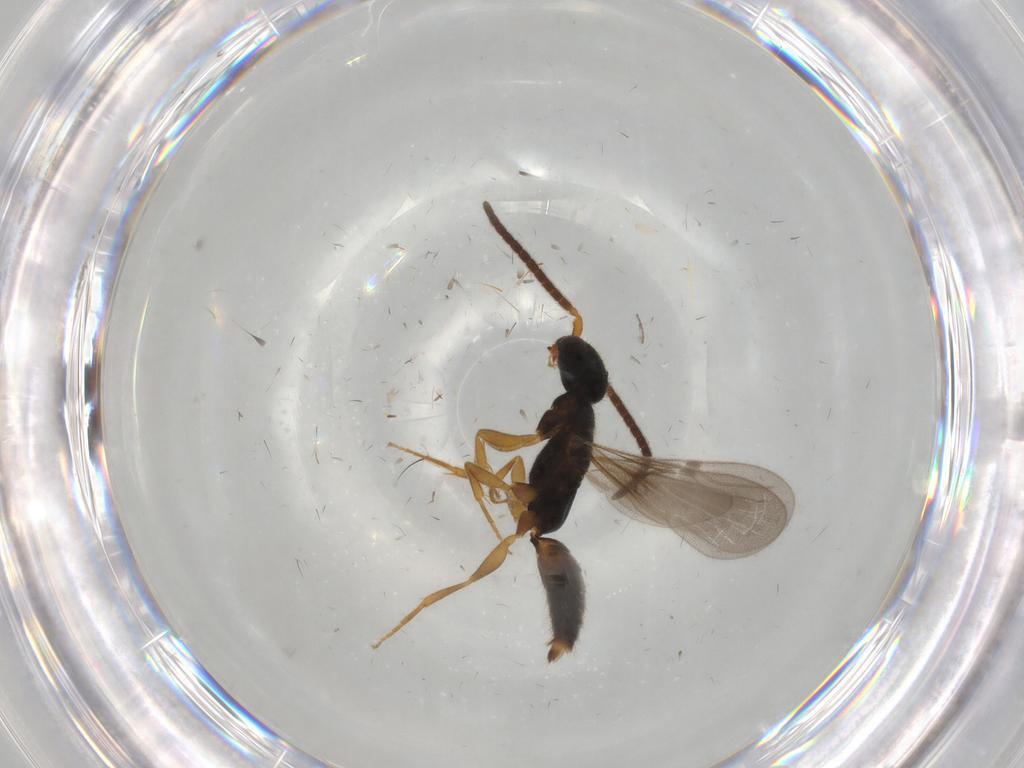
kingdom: Animalia
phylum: Arthropoda
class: Insecta
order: Hymenoptera
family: Bethylidae
